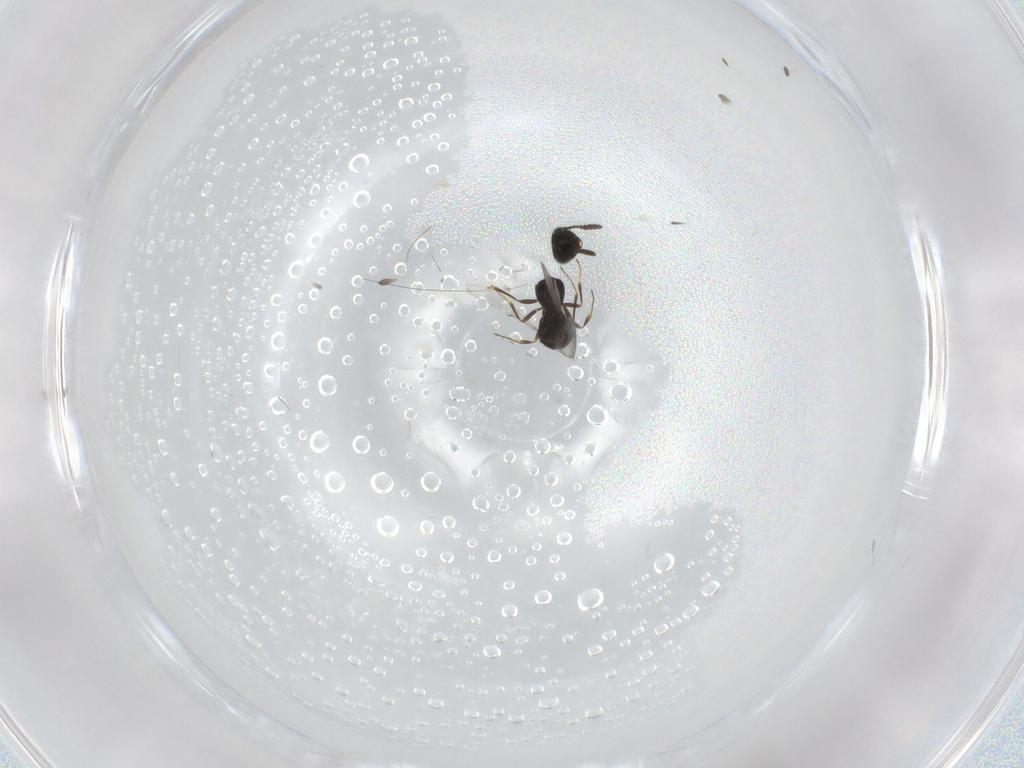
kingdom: Animalia
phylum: Arthropoda
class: Insecta
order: Hymenoptera
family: Scelionidae
